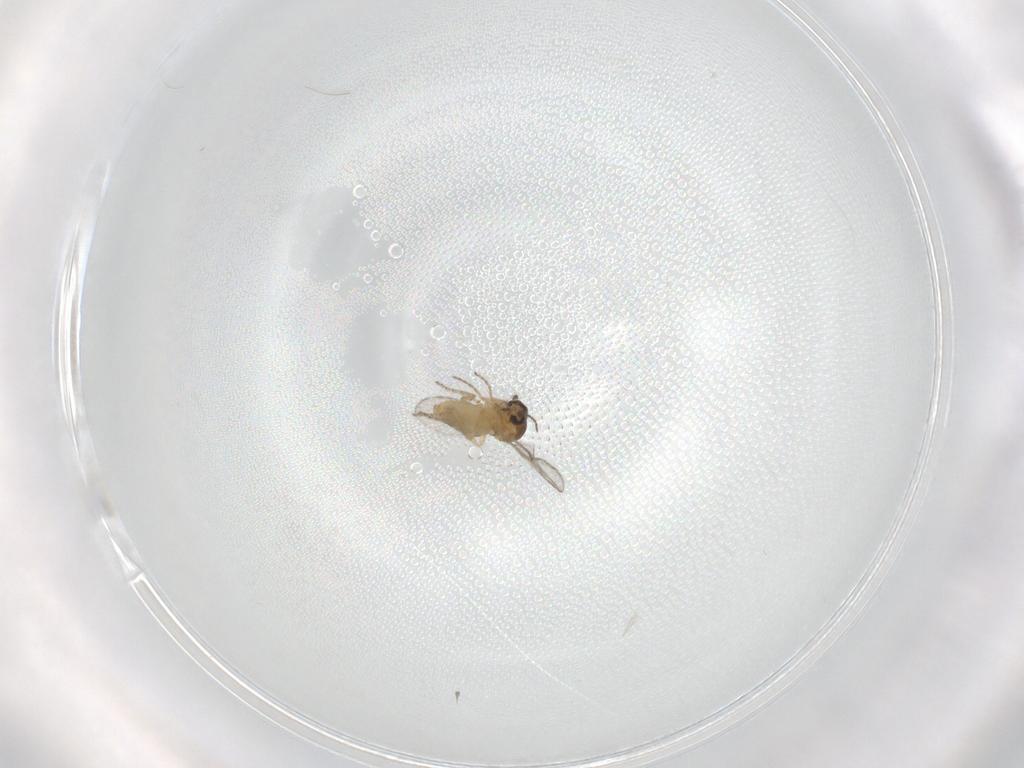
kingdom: Animalia
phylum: Arthropoda
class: Insecta
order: Diptera
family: Ceratopogonidae
